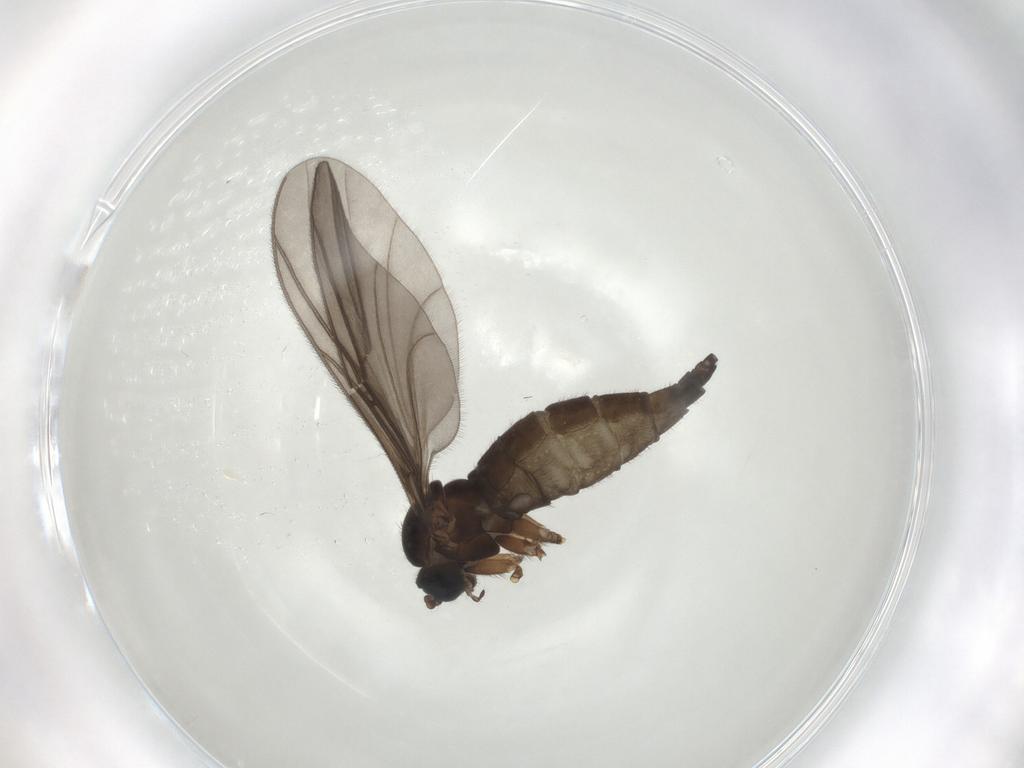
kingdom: Animalia
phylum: Arthropoda
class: Insecta
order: Diptera
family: Sciaridae
